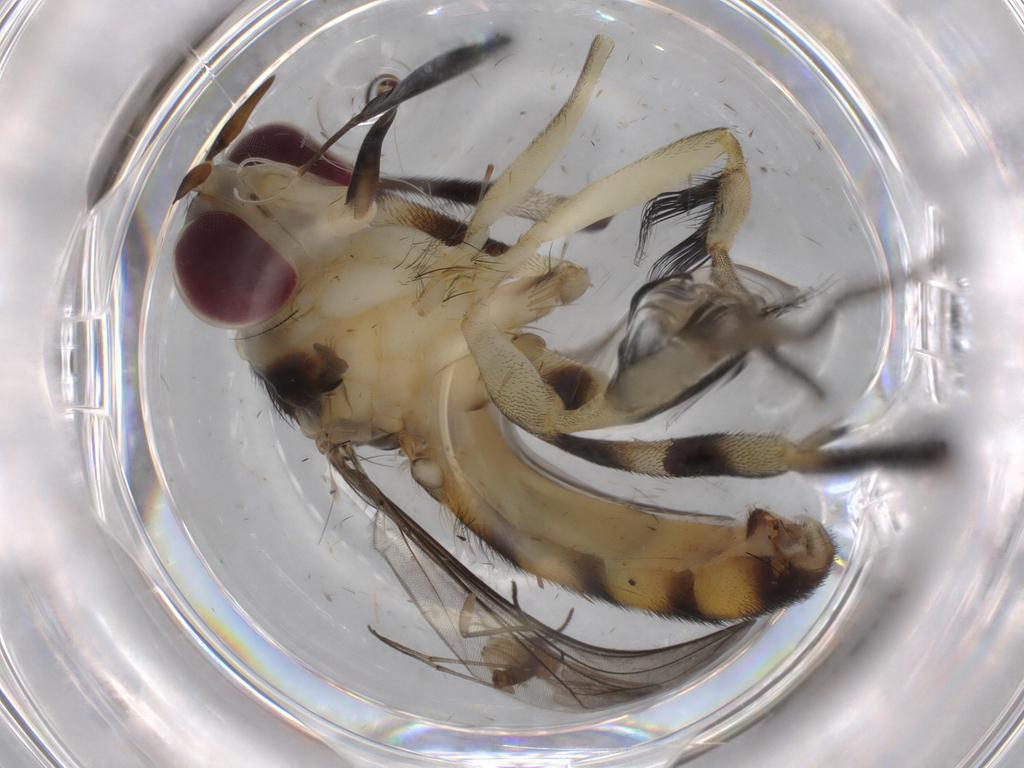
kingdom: Animalia
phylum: Arthropoda
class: Insecta
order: Diptera
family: Conopidae
